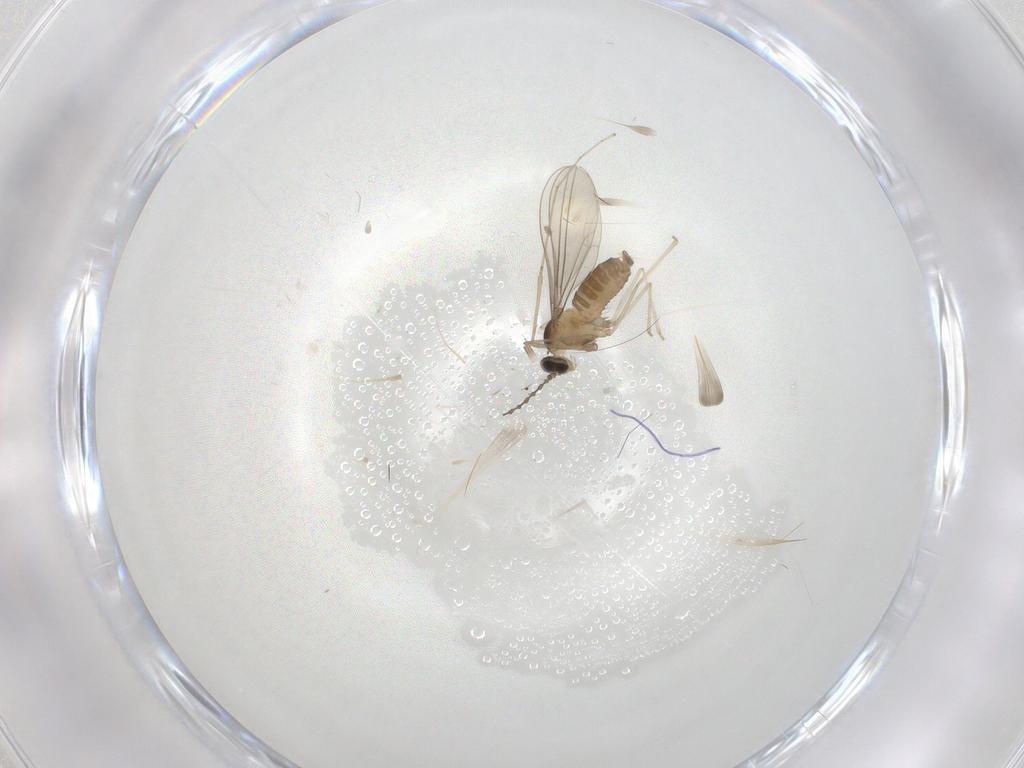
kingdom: Animalia
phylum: Arthropoda
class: Insecta
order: Diptera
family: Cecidomyiidae
